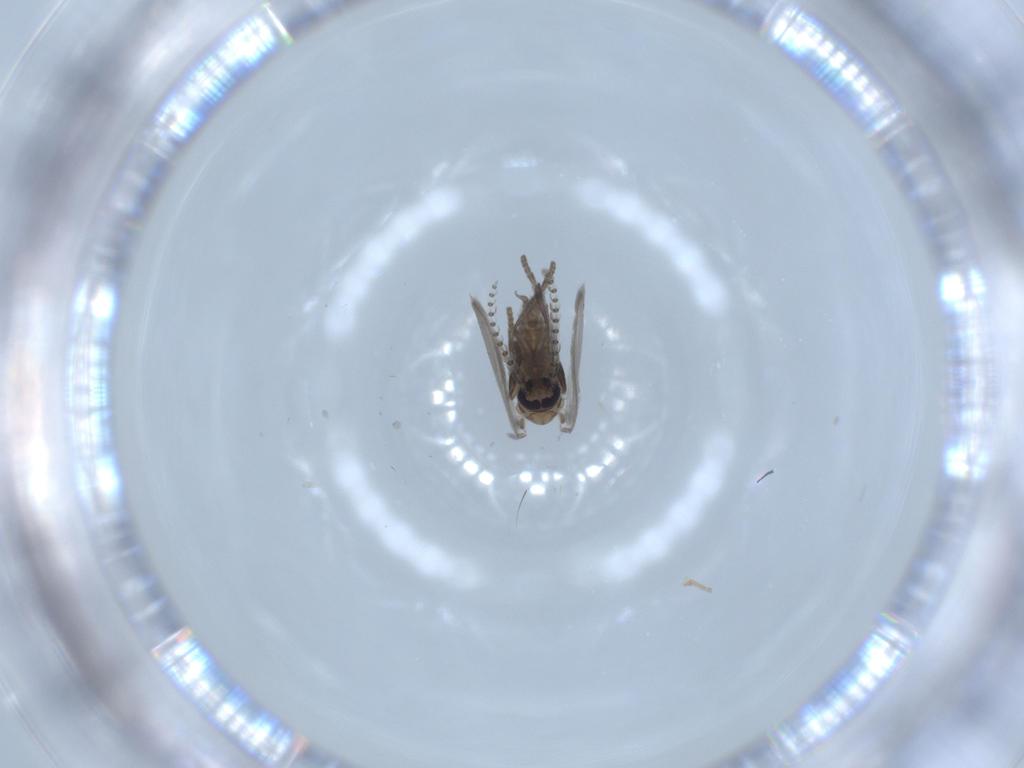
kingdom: Animalia
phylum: Arthropoda
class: Insecta
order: Diptera
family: Psychodidae
